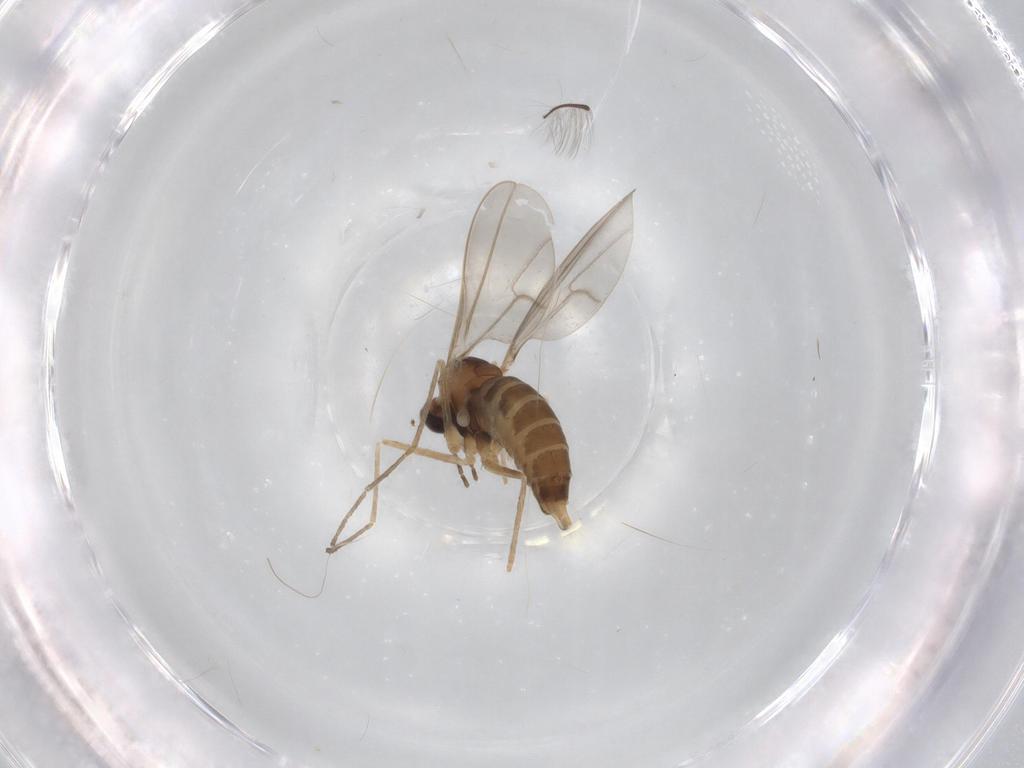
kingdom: Animalia
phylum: Arthropoda
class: Insecta
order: Diptera
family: Cecidomyiidae
